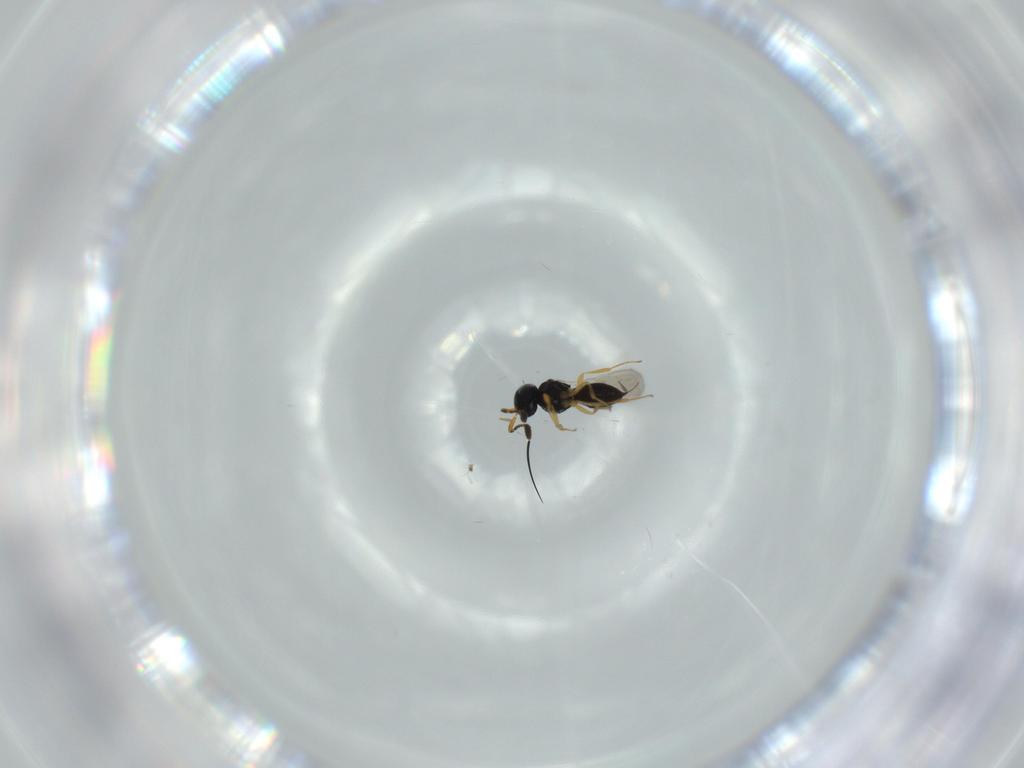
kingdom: Animalia
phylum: Arthropoda
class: Insecta
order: Hymenoptera
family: Scelionidae
